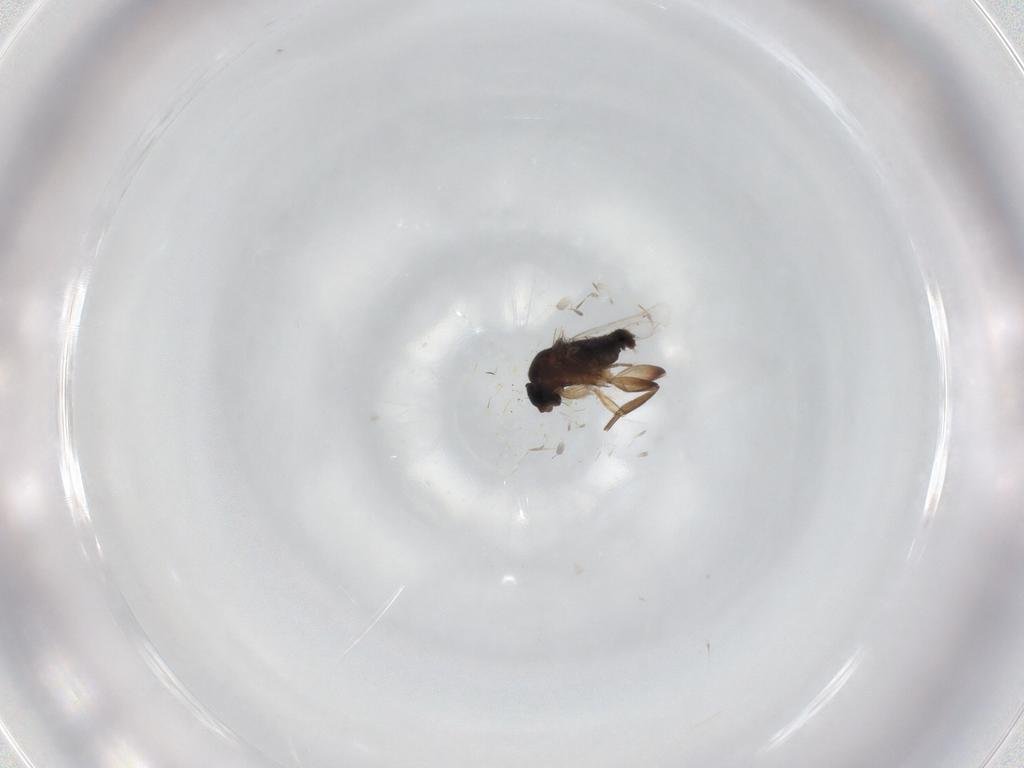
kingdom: Animalia
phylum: Arthropoda
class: Insecta
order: Diptera
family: Phoridae
